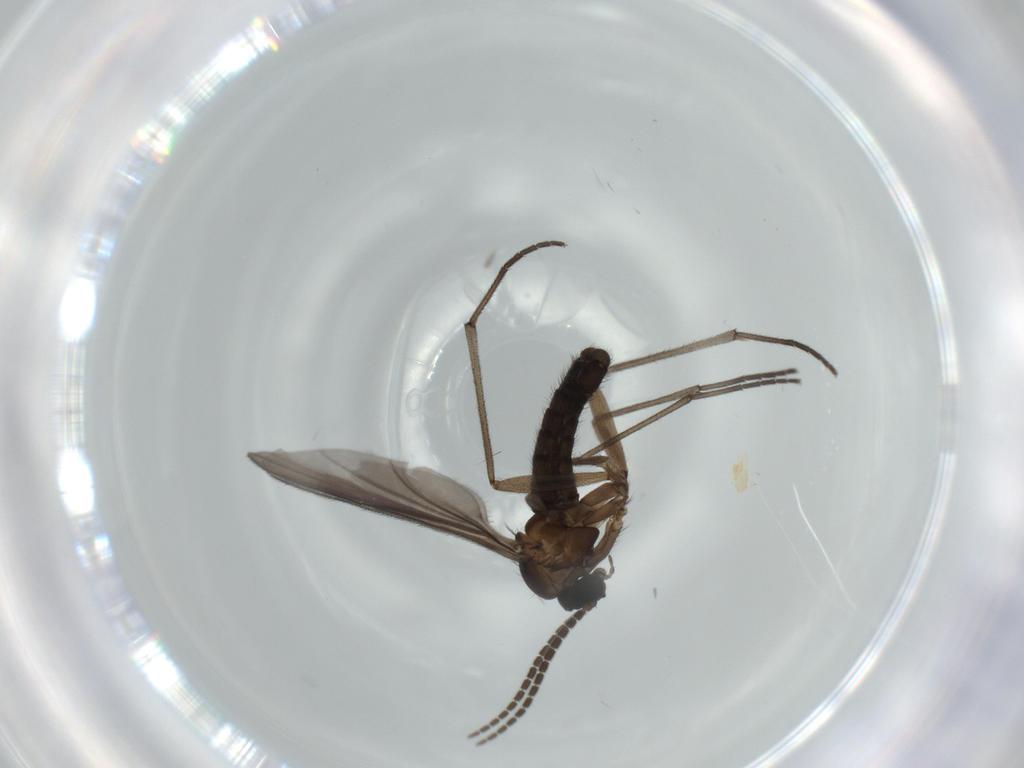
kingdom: Animalia
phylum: Arthropoda
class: Insecta
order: Diptera
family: Sciaridae
